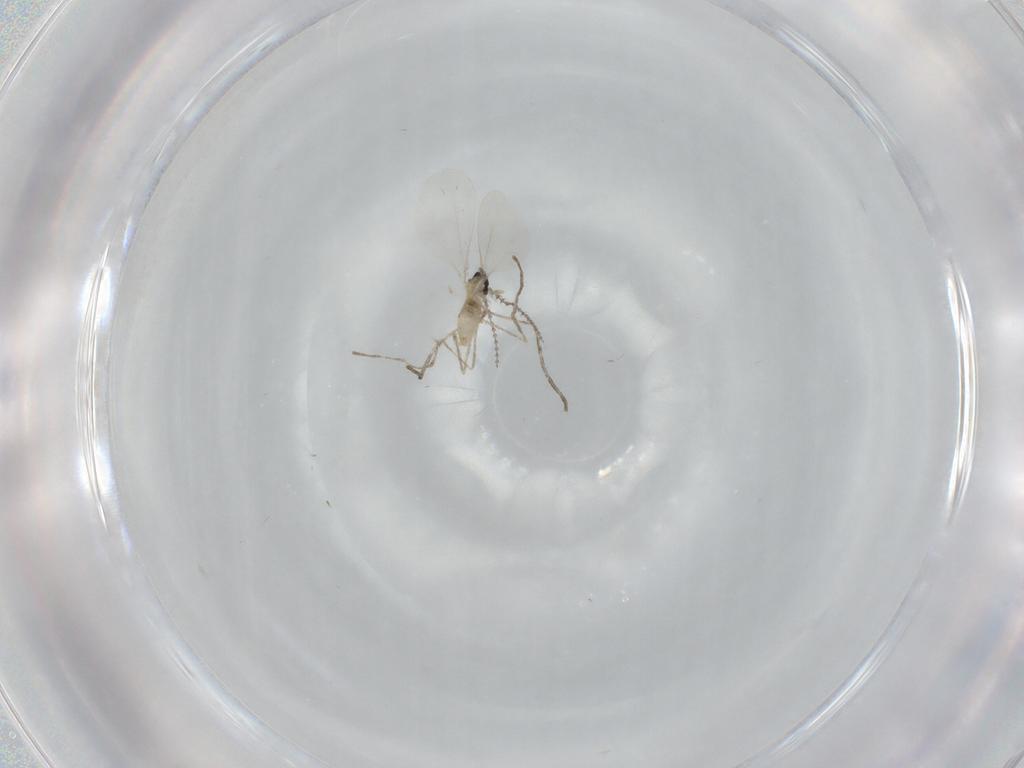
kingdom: Animalia
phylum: Arthropoda
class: Insecta
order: Diptera
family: Cecidomyiidae
